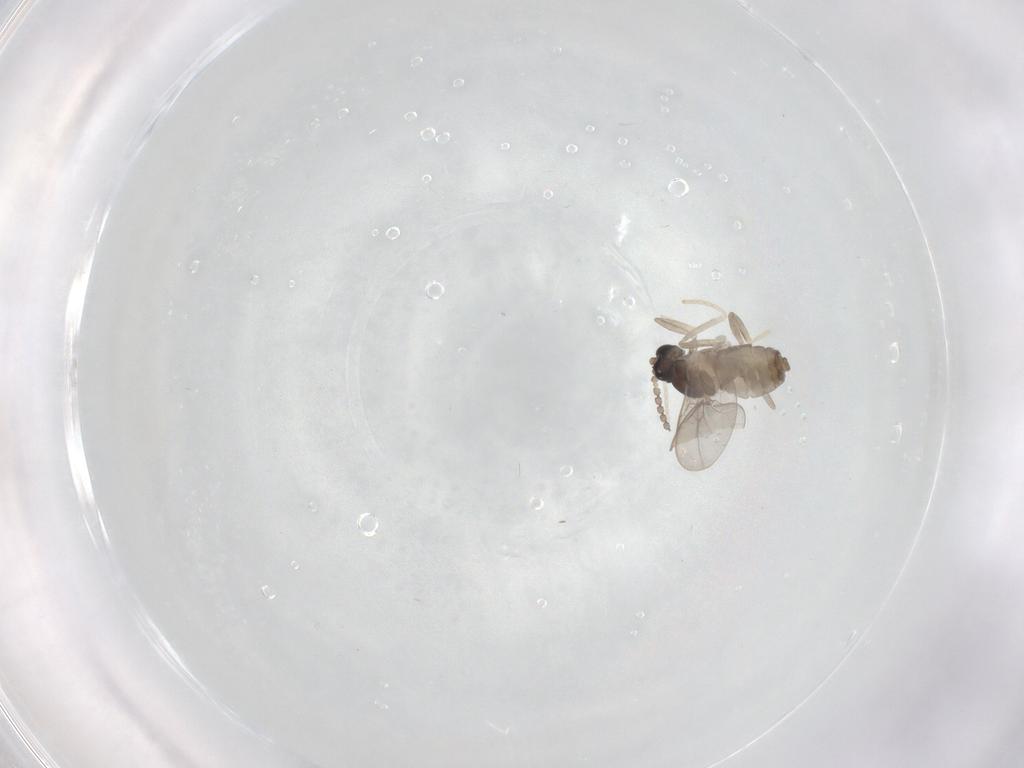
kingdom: Animalia
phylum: Arthropoda
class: Insecta
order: Diptera
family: Cecidomyiidae
